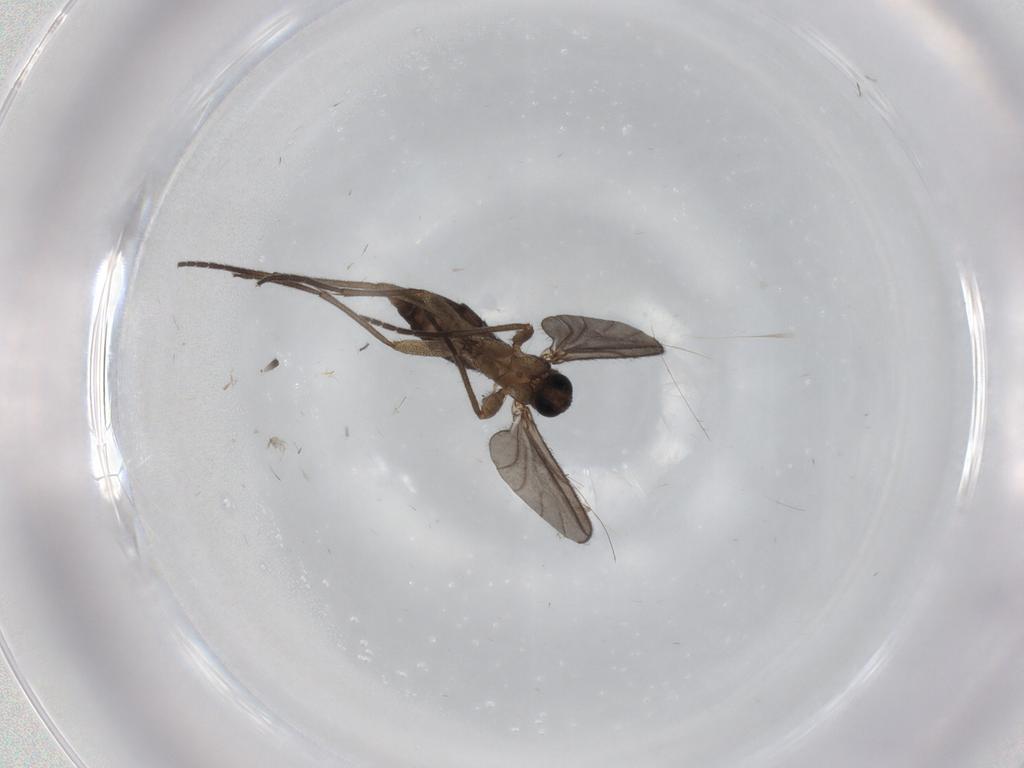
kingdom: Animalia
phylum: Arthropoda
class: Insecta
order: Diptera
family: Sciaridae
